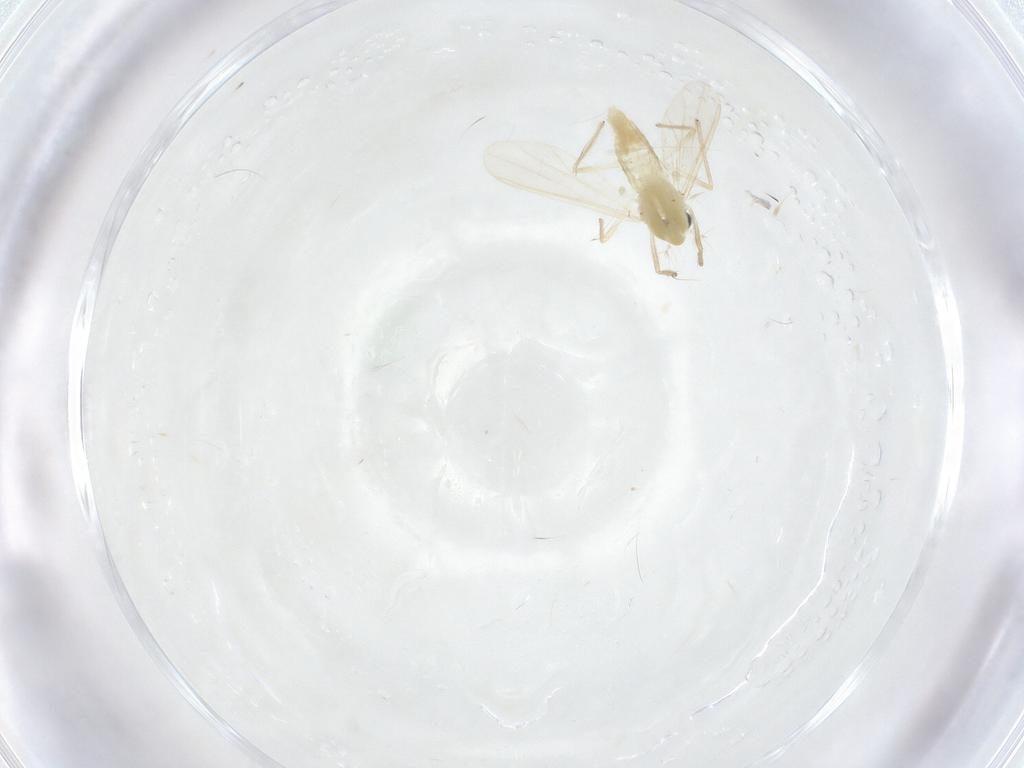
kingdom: Animalia
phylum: Arthropoda
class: Insecta
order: Diptera
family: Chironomidae
